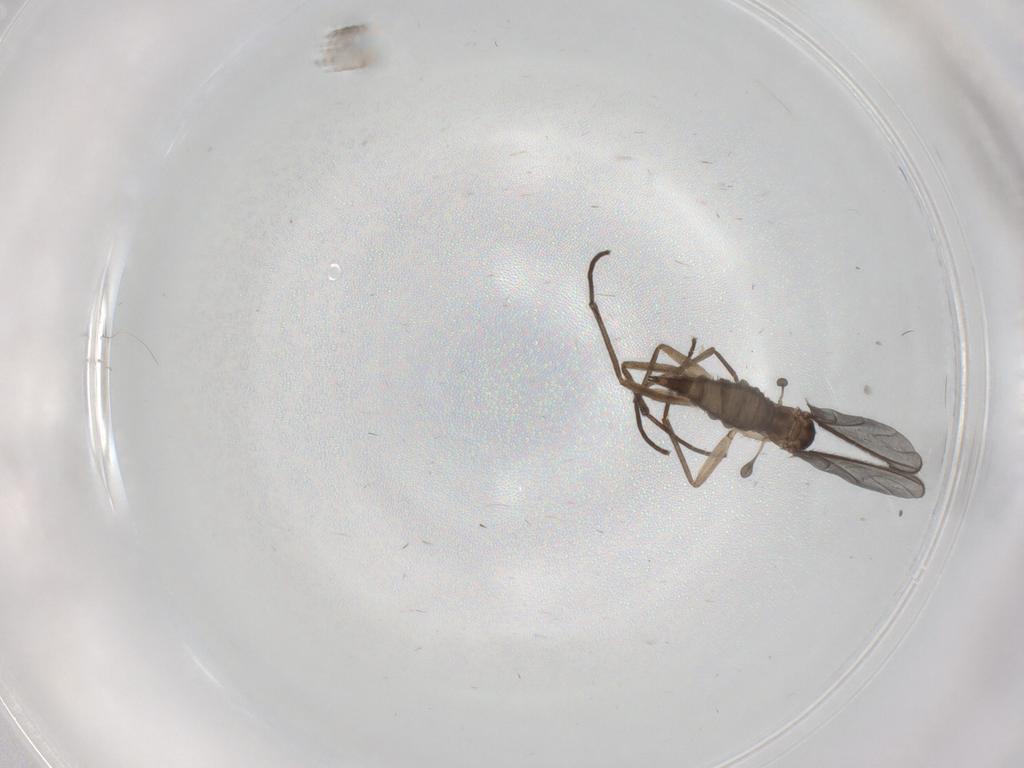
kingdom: Animalia
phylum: Arthropoda
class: Insecta
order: Diptera
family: Sciaridae
